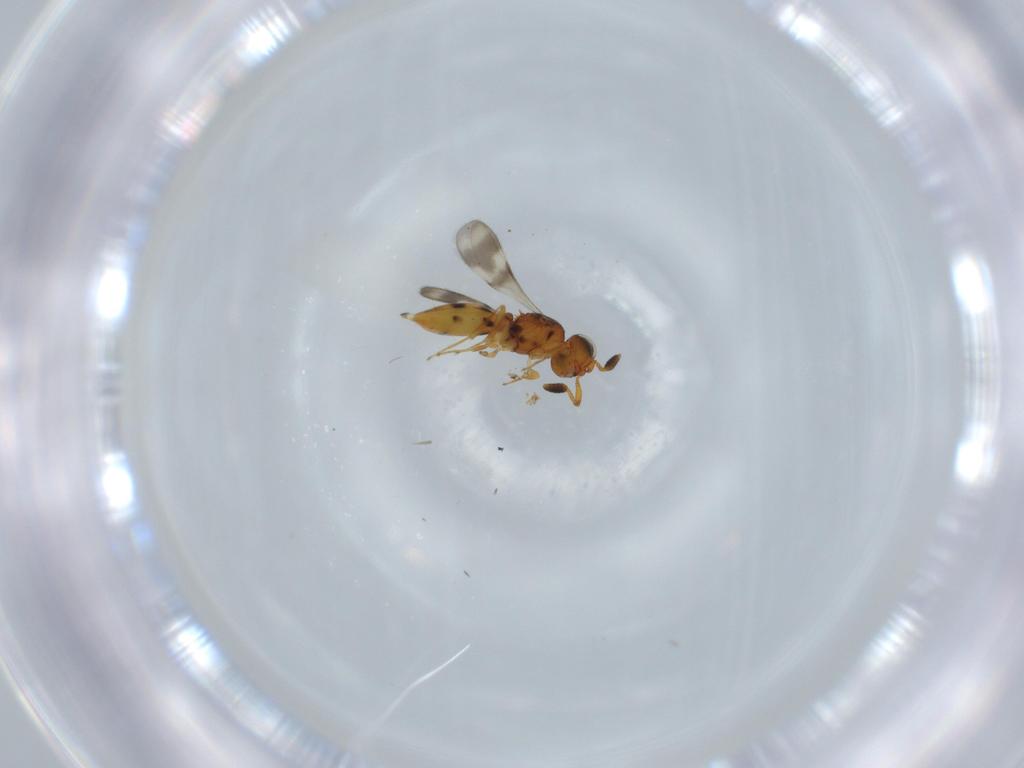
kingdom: Animalia
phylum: Arthropoda
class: Insecta
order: Hymenoptera
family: Scelionidae
